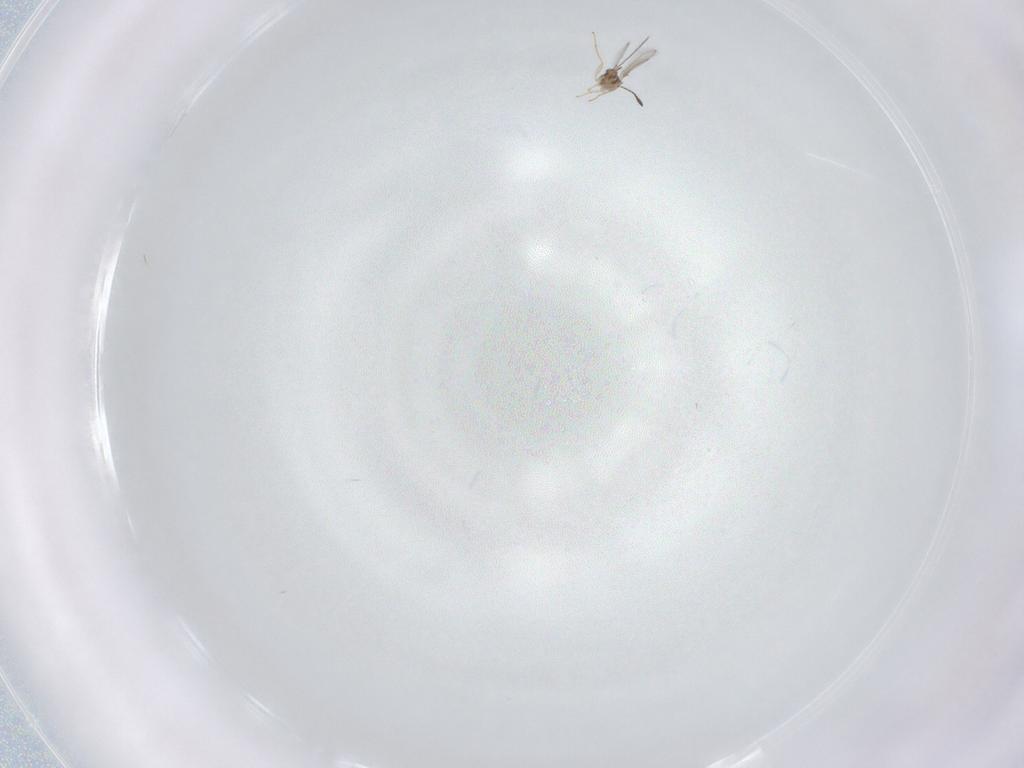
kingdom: Animalia
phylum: Arthropoda
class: Insecta
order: Hymenoptera
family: Mymaridae
